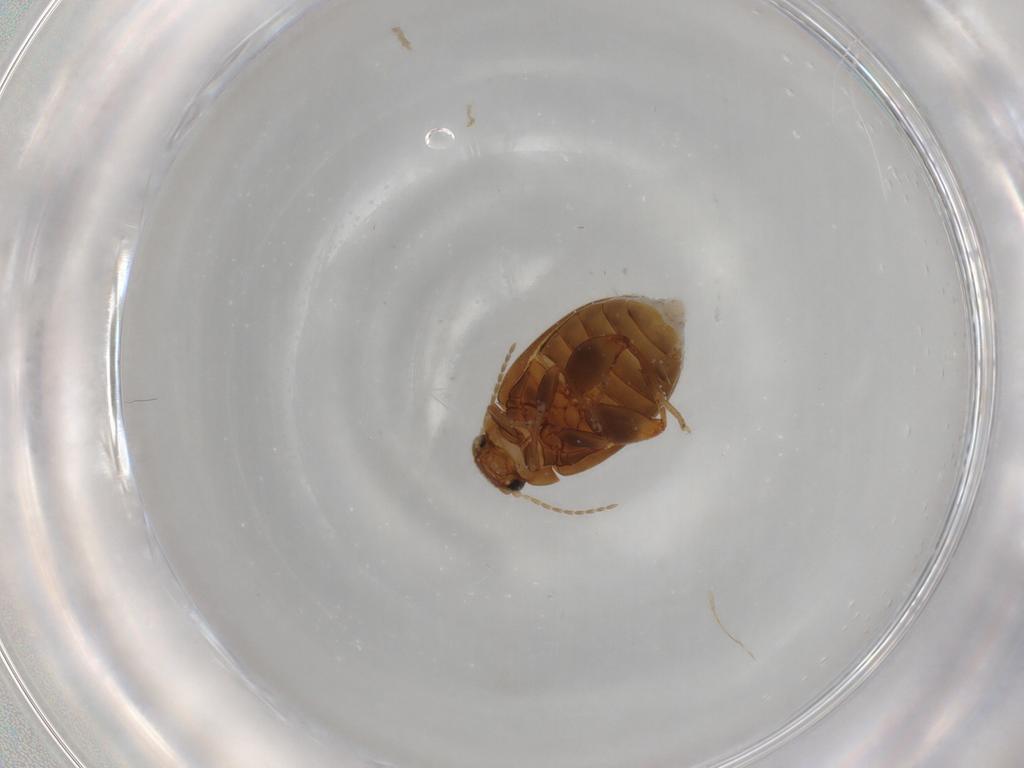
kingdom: Animalia
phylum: Arthropoda
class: Insecta
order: Coleoptera
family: Scirtidae
